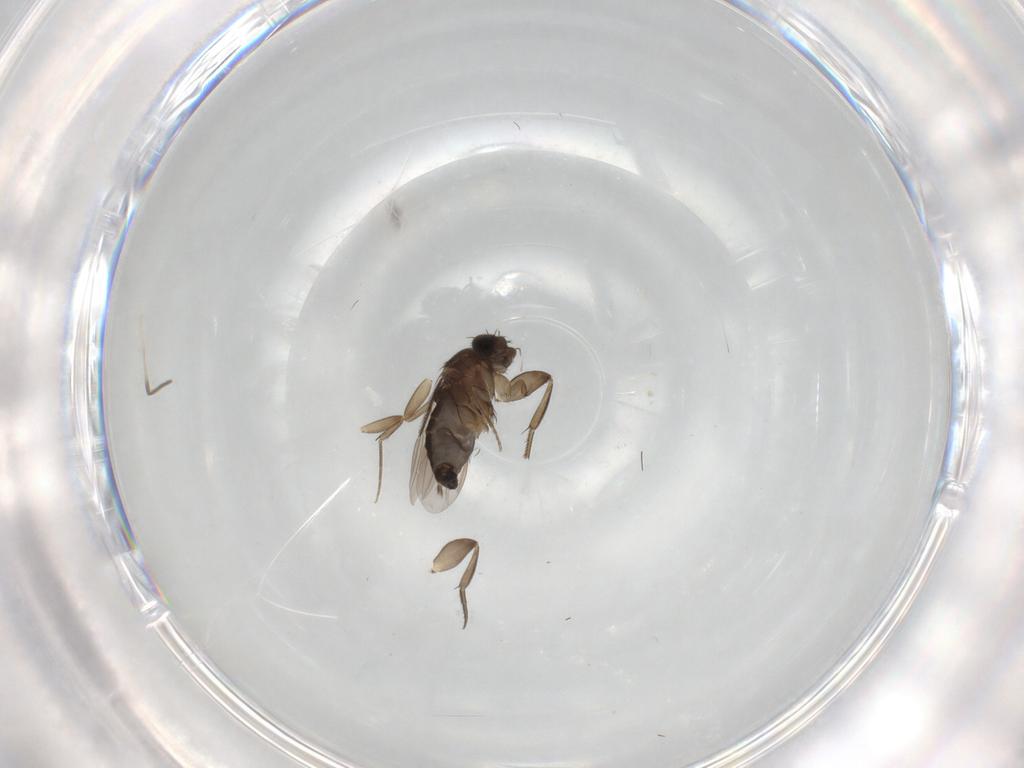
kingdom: Animalia
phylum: Arthropoda
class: Insecta
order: Diptera
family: Phoridae
